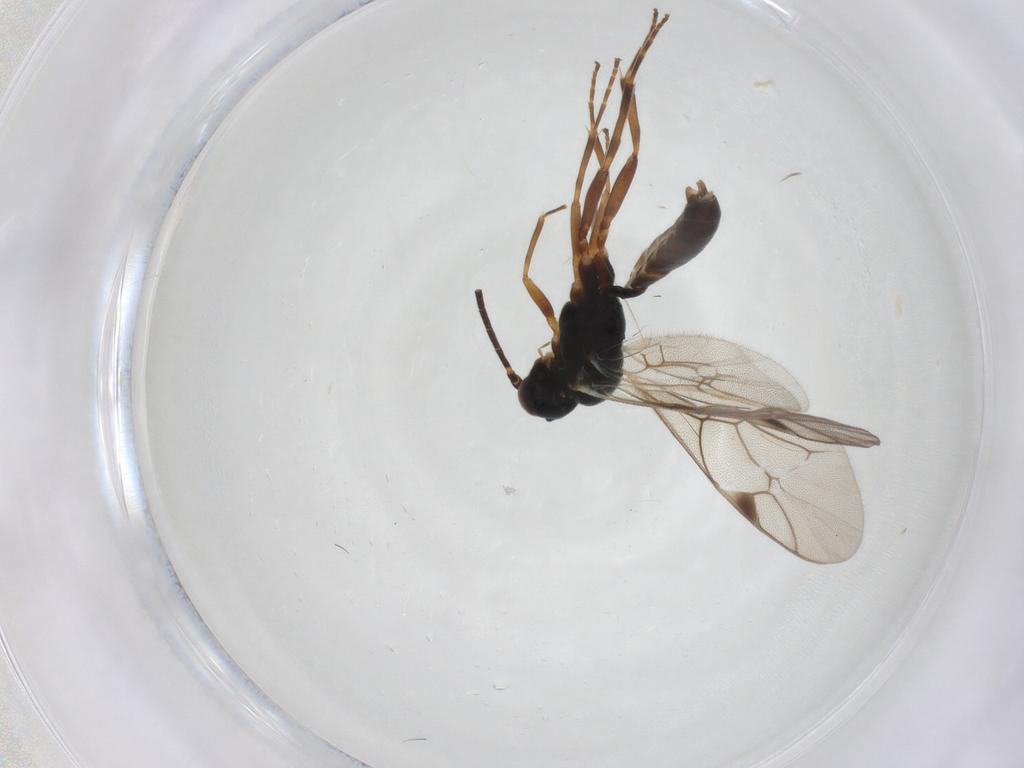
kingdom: Animalia
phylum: Arthropoda
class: Insecta
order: Hymenoptera
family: Ichneumonidae
